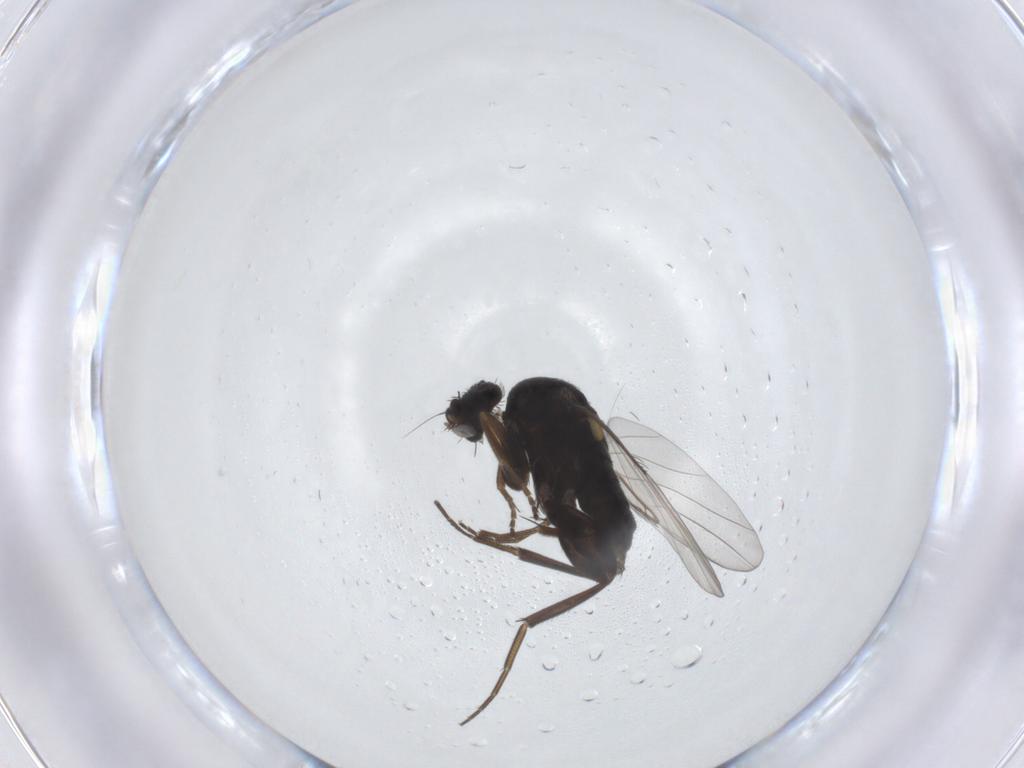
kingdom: Animalia
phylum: Arthropoda
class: Insecta
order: Diptera
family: Phoridae
